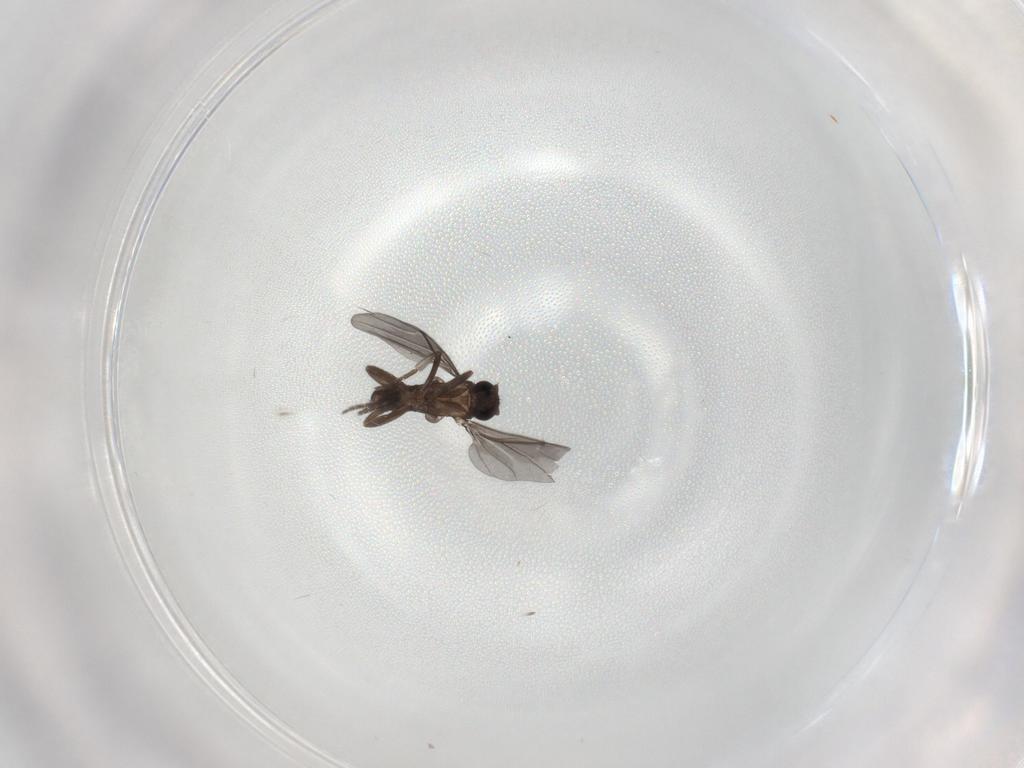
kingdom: Animalia
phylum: Arthropoda
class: Insecta
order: Diptera
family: Phoridae
